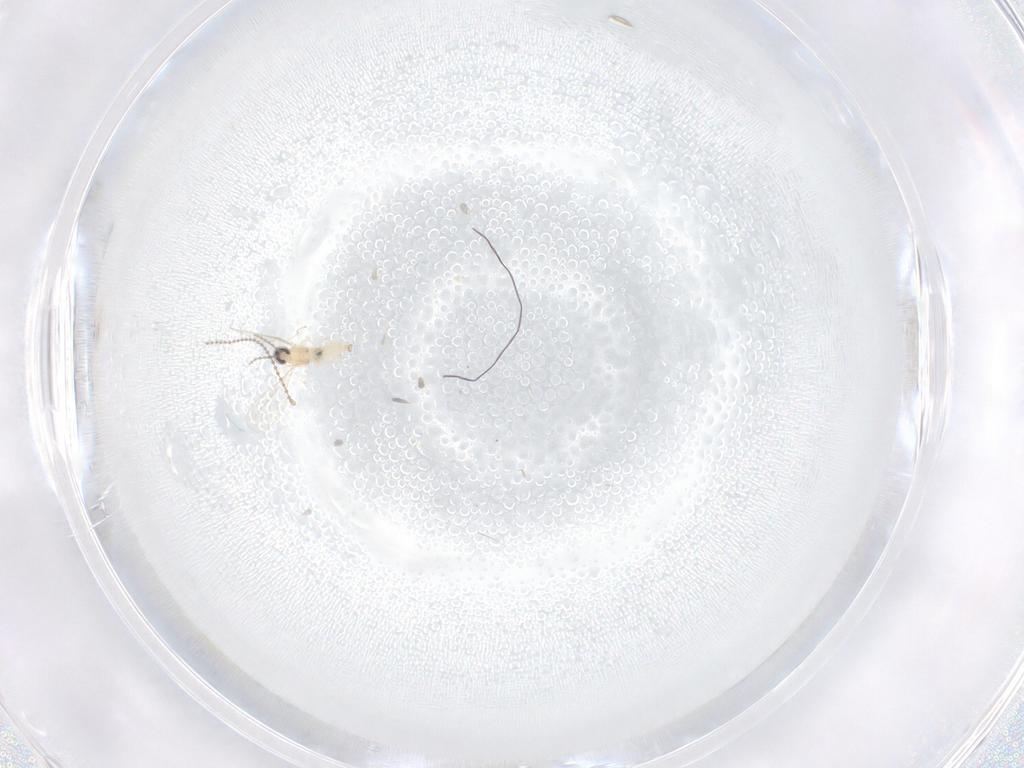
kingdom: Animalia
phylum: Arthropoda
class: Insecta
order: Diptera
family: Cecidomyiidae
